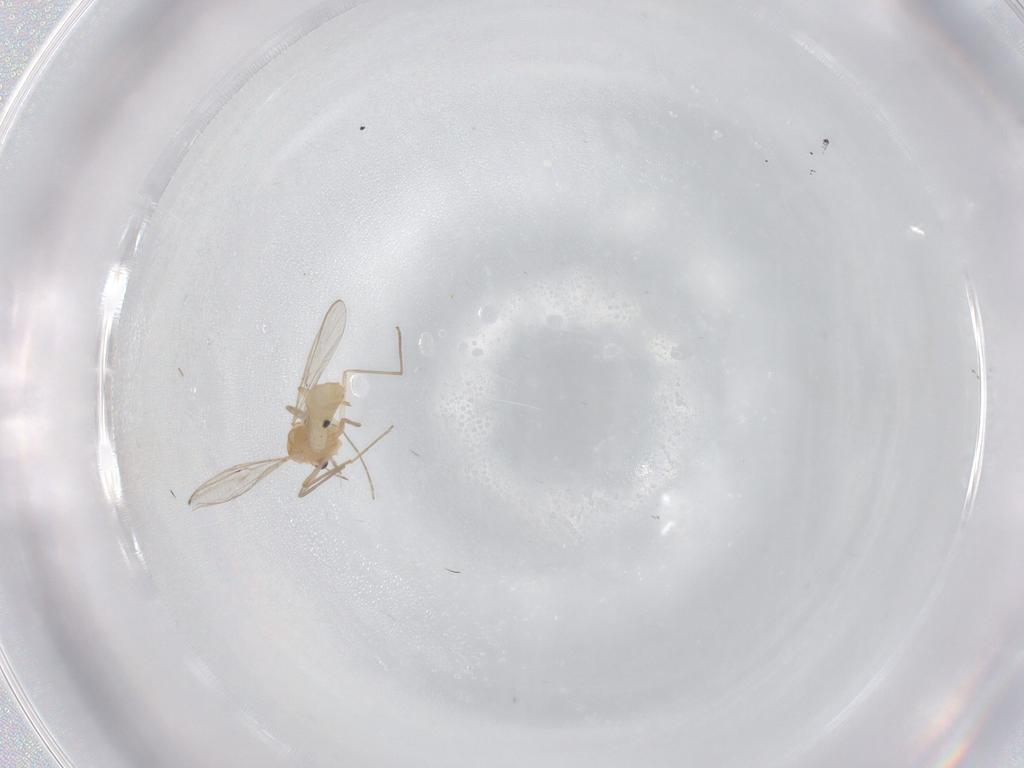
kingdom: Animalia
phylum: Arthropoda
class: Insecta
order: Diptera
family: Chironomidae
